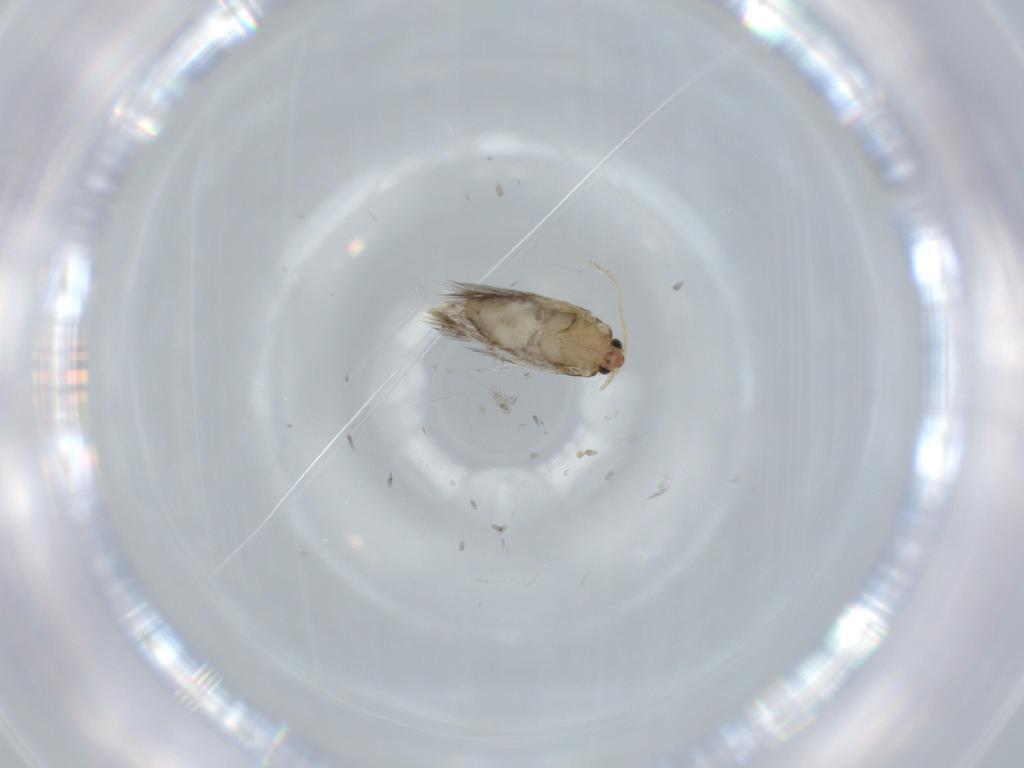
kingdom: Animalia
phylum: Arthropoda
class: Insecta
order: Lepidoptera
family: Nepticulidae
